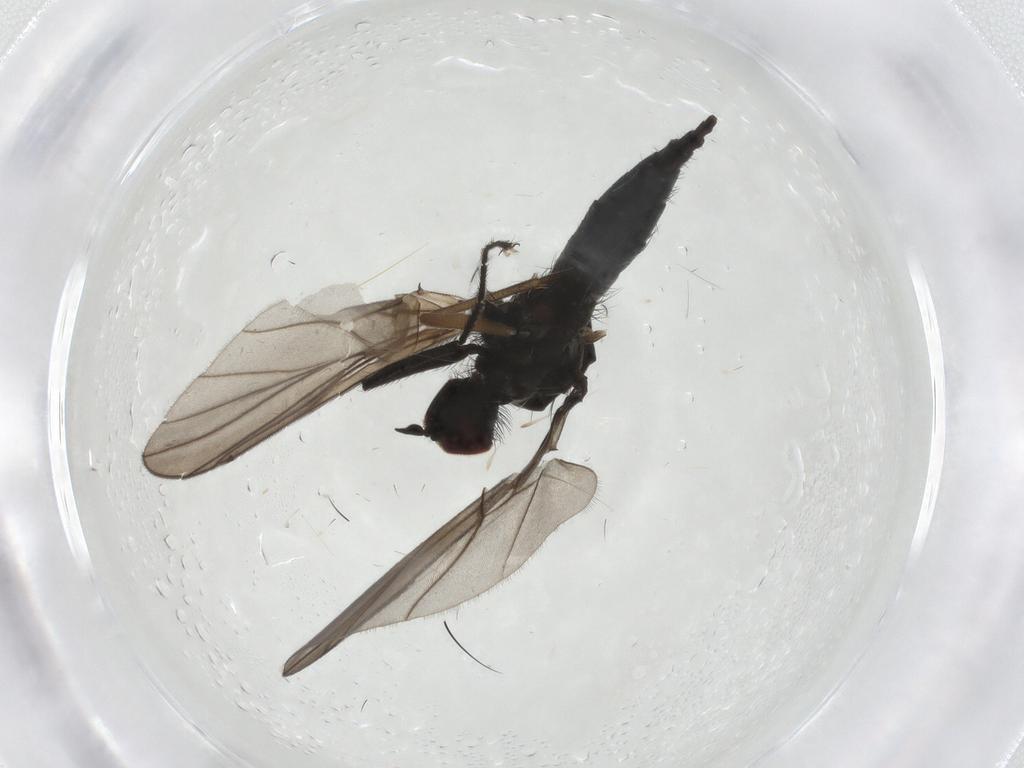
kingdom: Animalia
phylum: Arthropoda
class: Insecta
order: Diptera
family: Hybotidae
